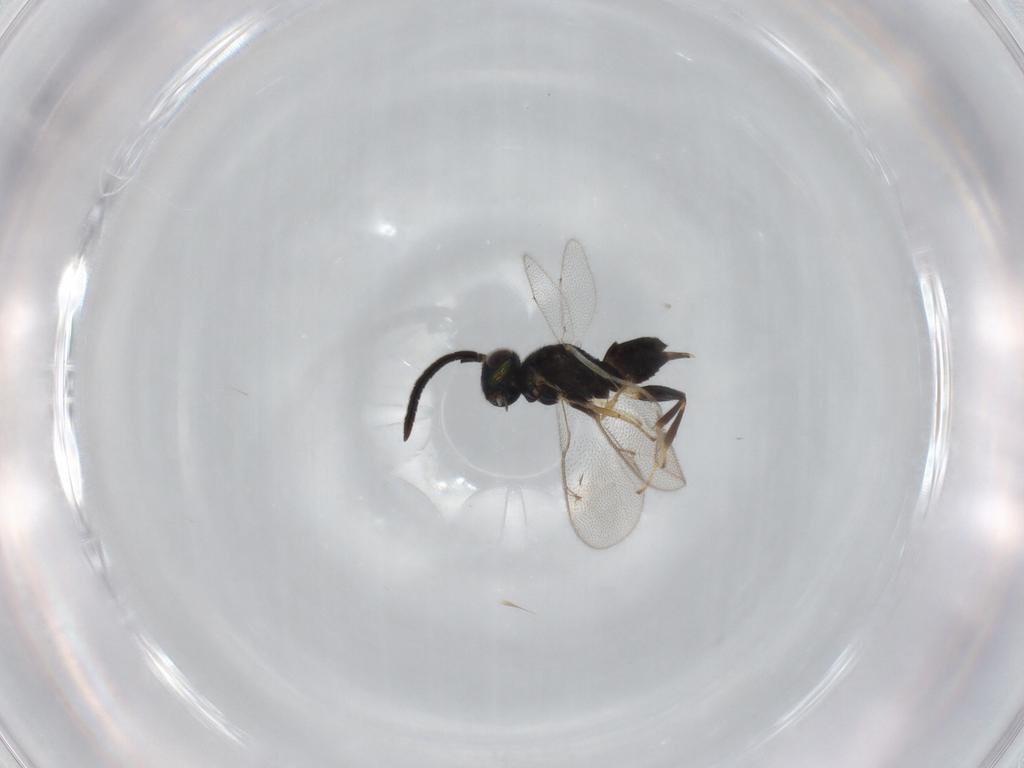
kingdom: Animalia
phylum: Arthropoda
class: Insecta
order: Hymenoptera
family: Eupelmidae
